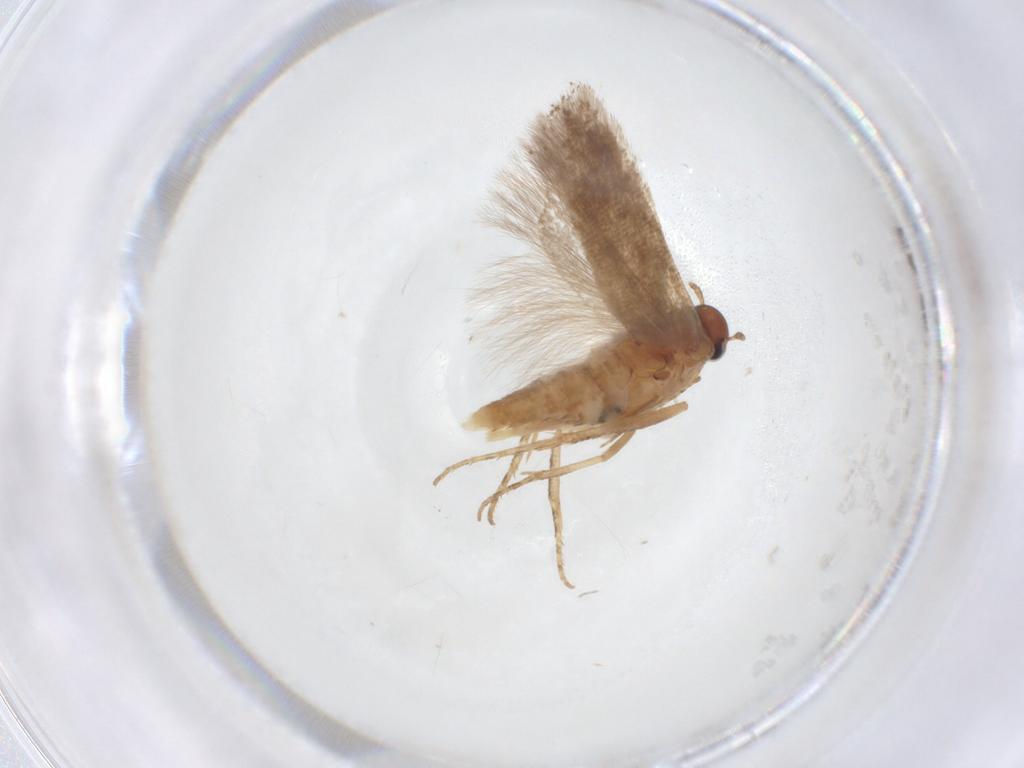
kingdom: Animalia
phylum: Arthropoda
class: Insecta
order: Lepidoptera
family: Gelechiidae
